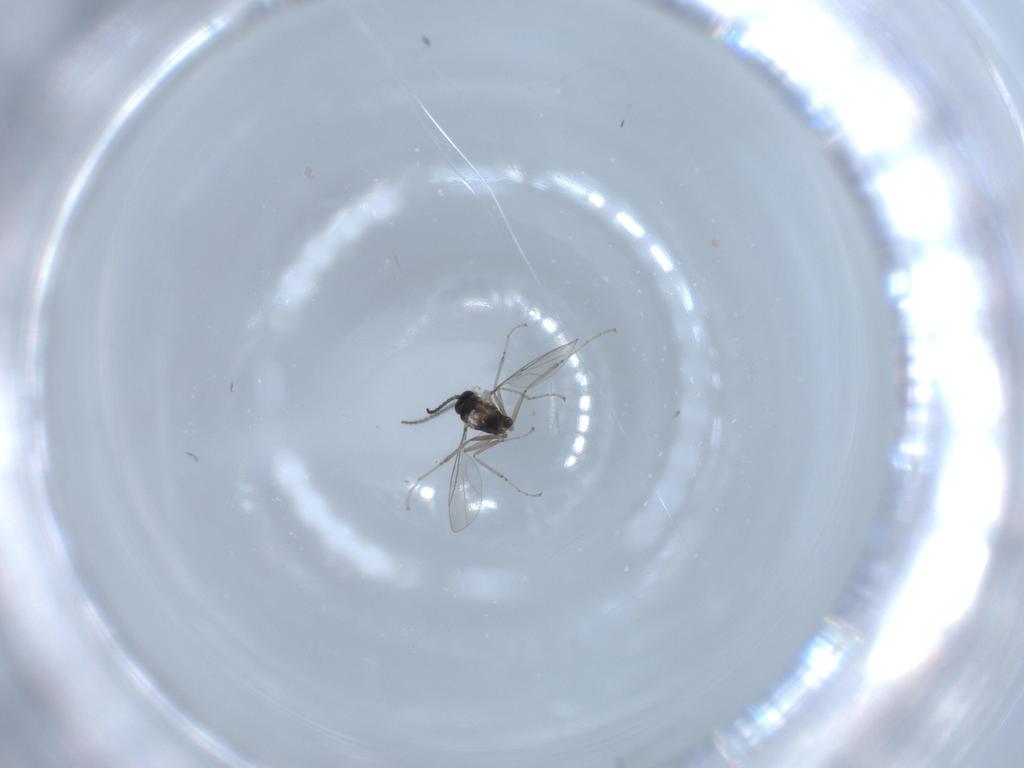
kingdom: Animalia
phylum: Arthropoda
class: Insecta
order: Diptera
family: Cecidomyiidae
